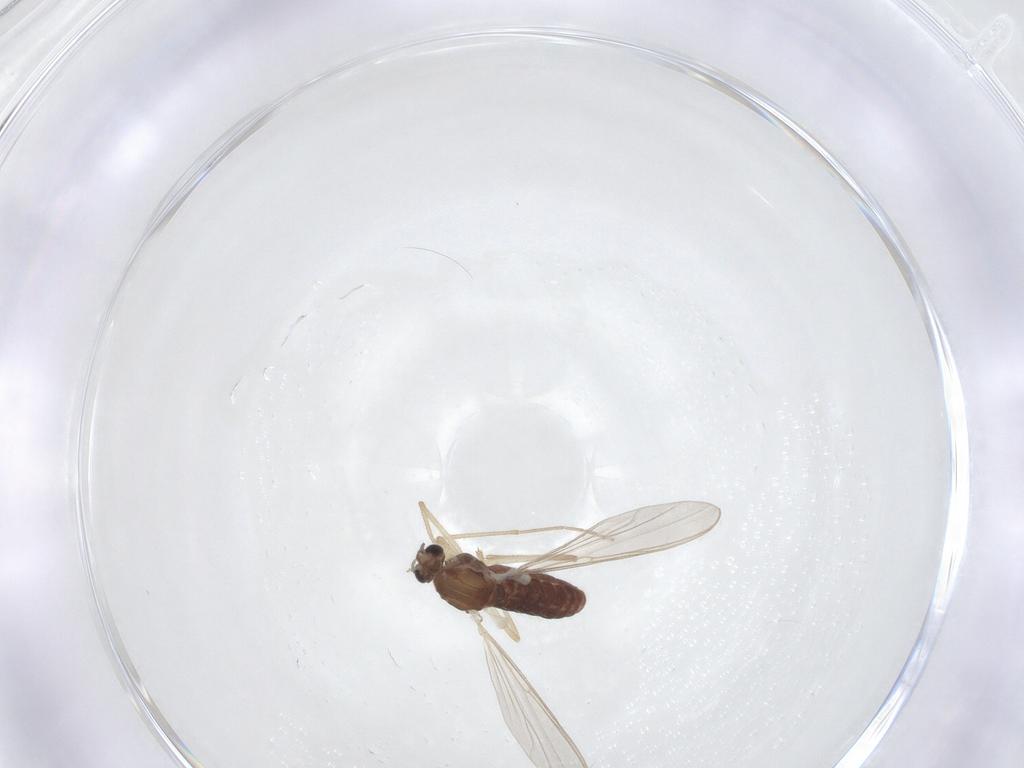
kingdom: Animalia
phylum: Arthropoda
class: Insecta
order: Diptera
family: Chironomidae
